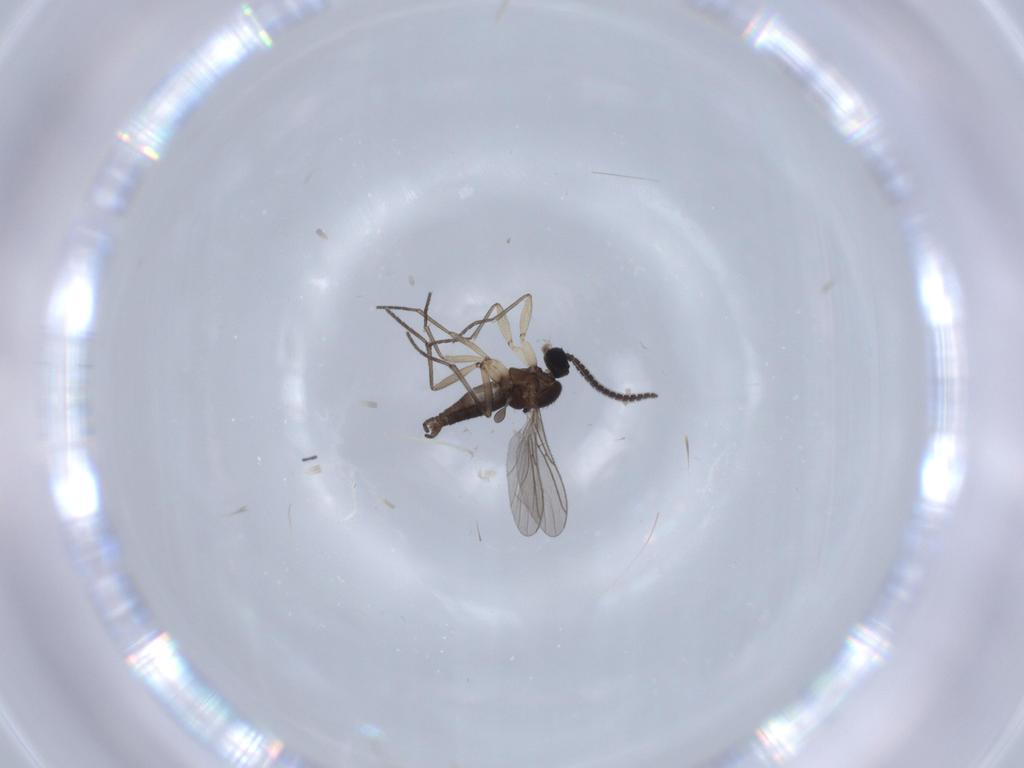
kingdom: Animalia
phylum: Arthropoda
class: Insecta
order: Diptera
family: Sciaridae
